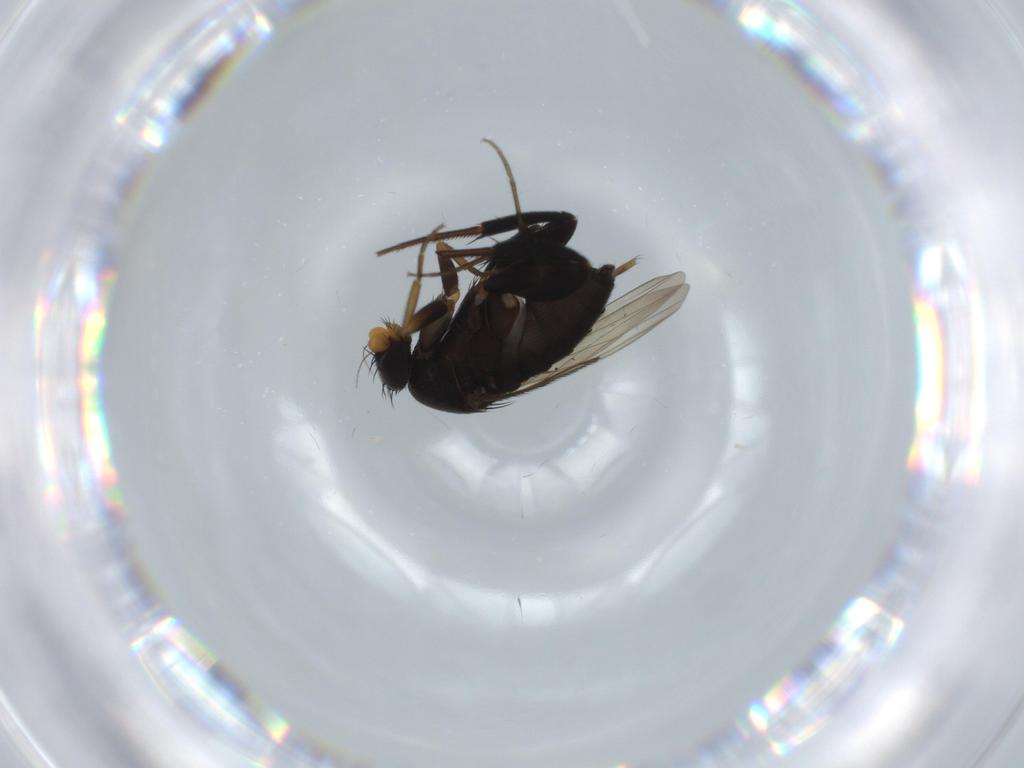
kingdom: Animalia
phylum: Arthropoda
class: Insecta
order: Diptera
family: Phoridae
